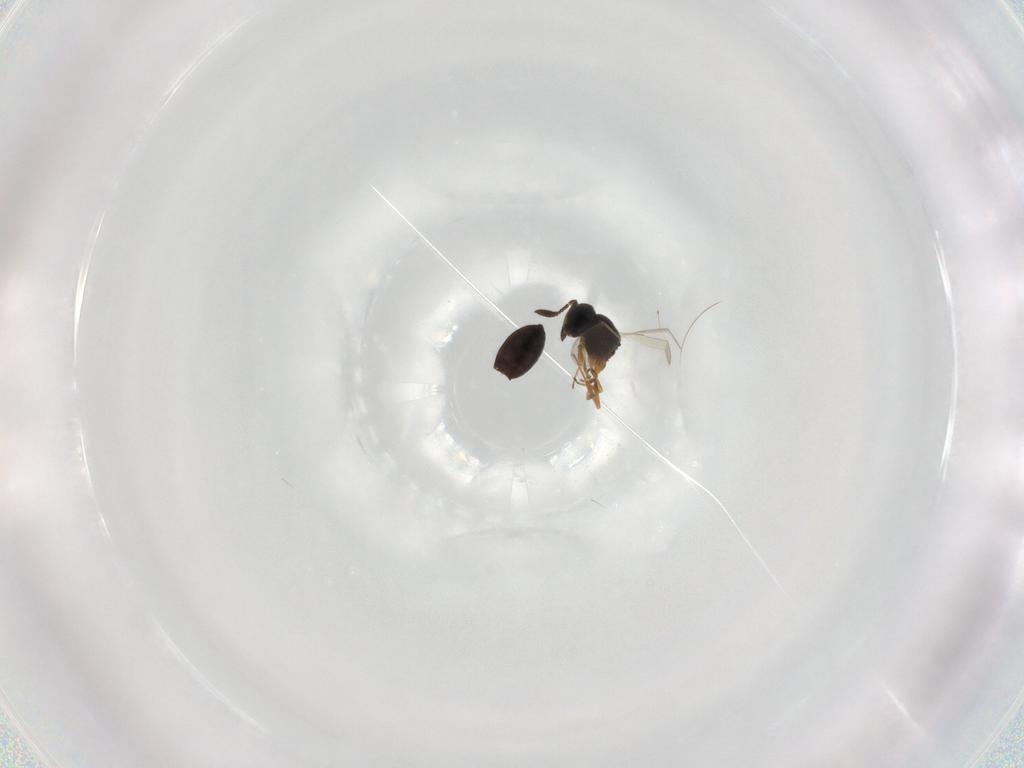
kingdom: Animalia
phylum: Arthropoda
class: Insecta
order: Hymenoptera
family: Scelionidae
